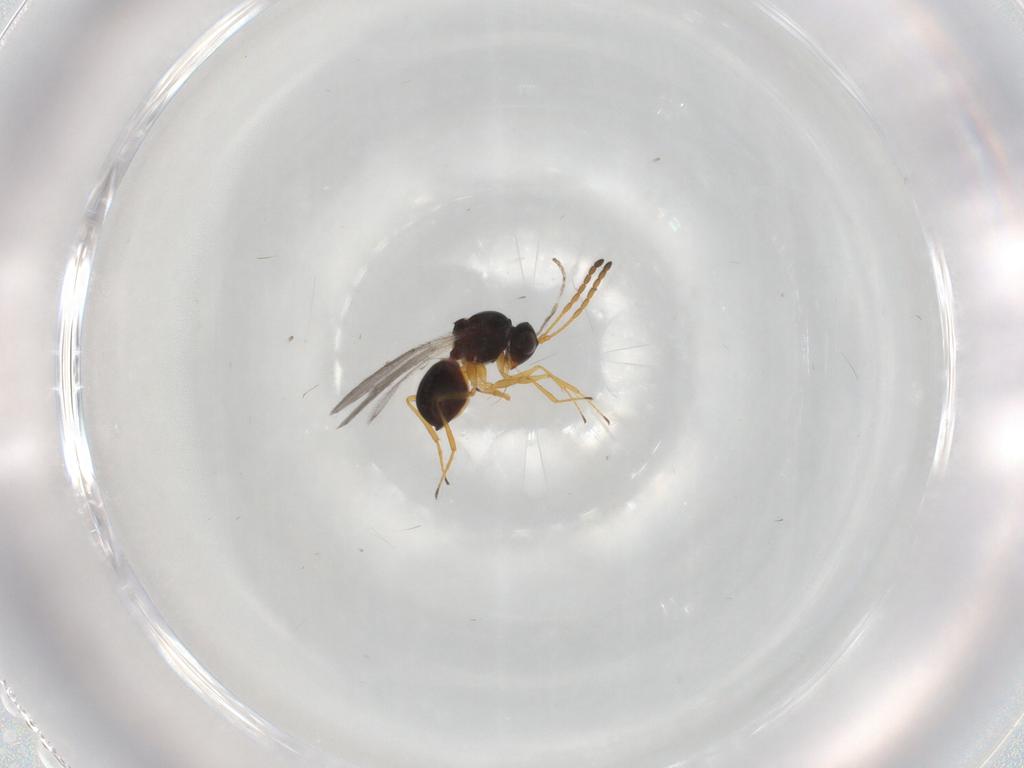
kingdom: Animalia
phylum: Arthropoda
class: Insecta
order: Hymenoptera
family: Figitidae
